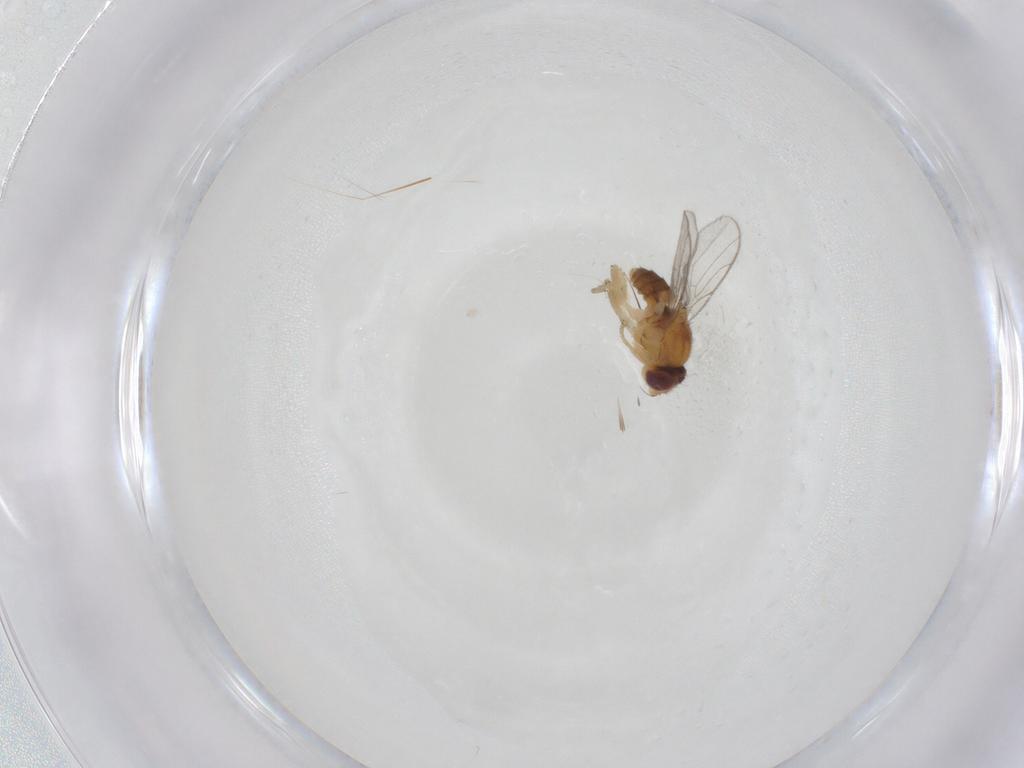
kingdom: Animalia
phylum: Arthropoda
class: Insecta
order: Diptera
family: Chloropidae
